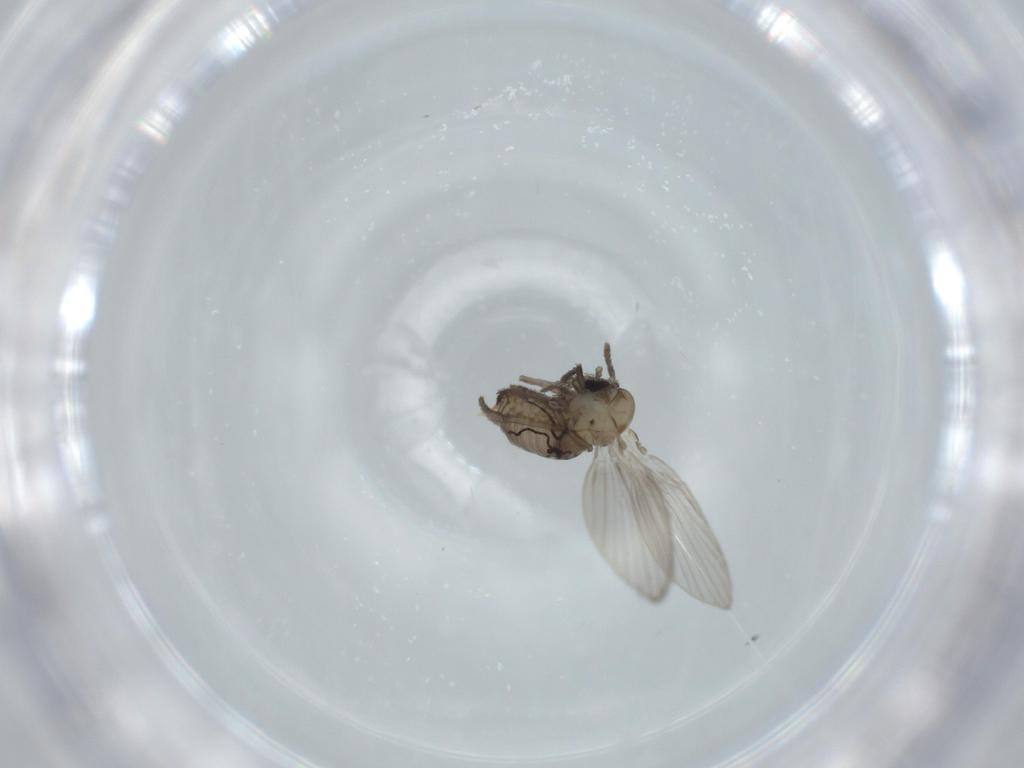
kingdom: Animalia
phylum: Arthropoda
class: Insecta
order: Diptera
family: Psychodidae
